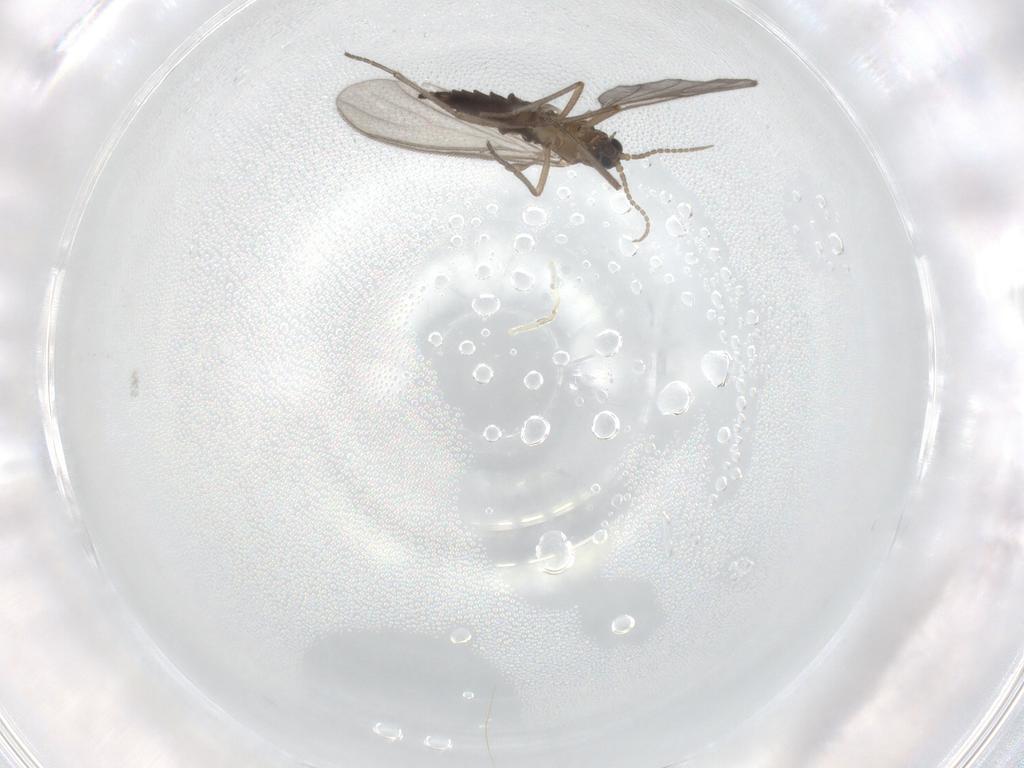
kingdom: Animalia
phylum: Arthropoda
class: Insecta
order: Diptera
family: Sciaridae
